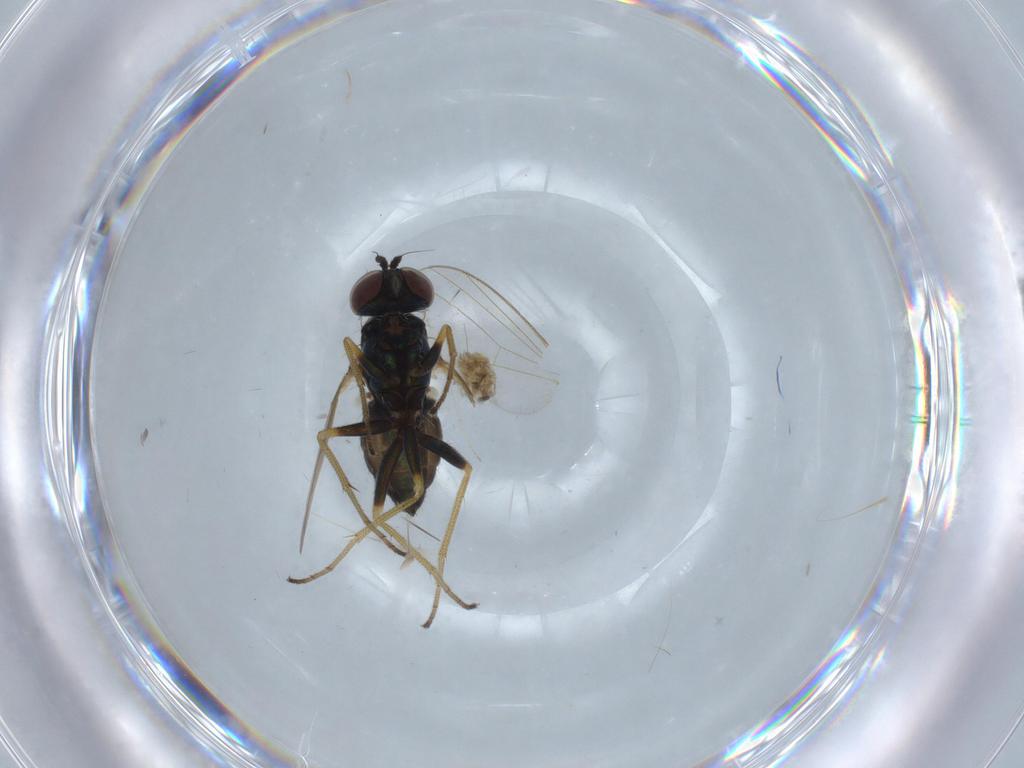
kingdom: Animalia
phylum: Arthropoda
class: Insecta
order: Diptera
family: Dolichopodidae
